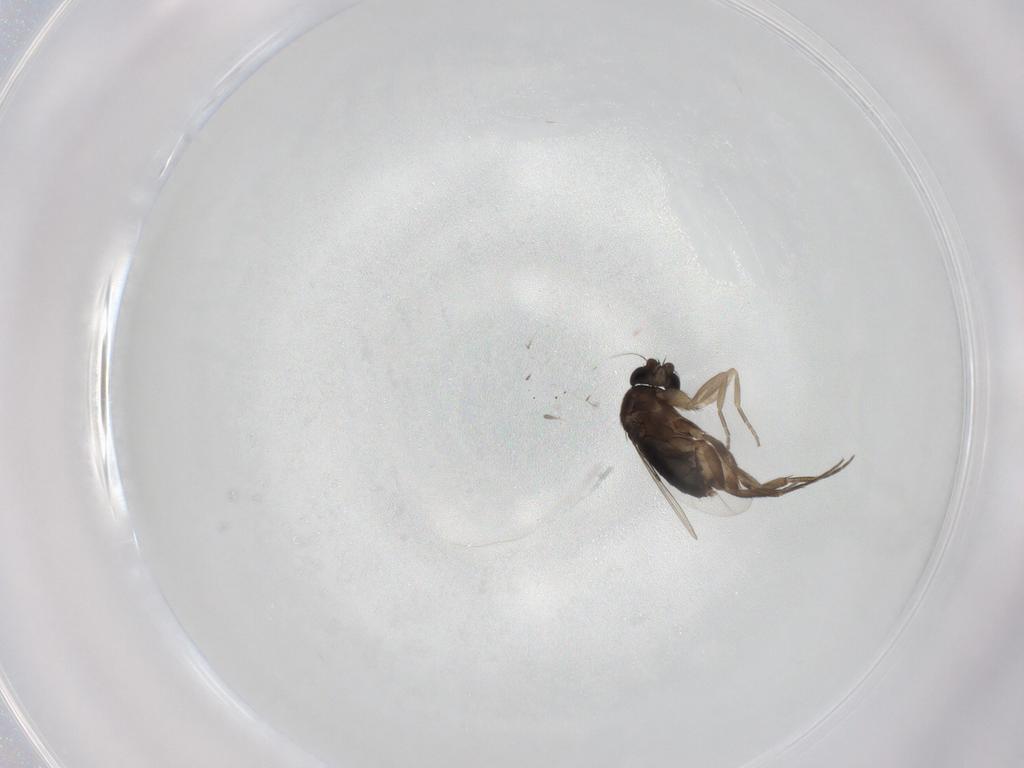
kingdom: Animalia
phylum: Arthropoda
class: Insecta
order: Diptera
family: Phoridae
